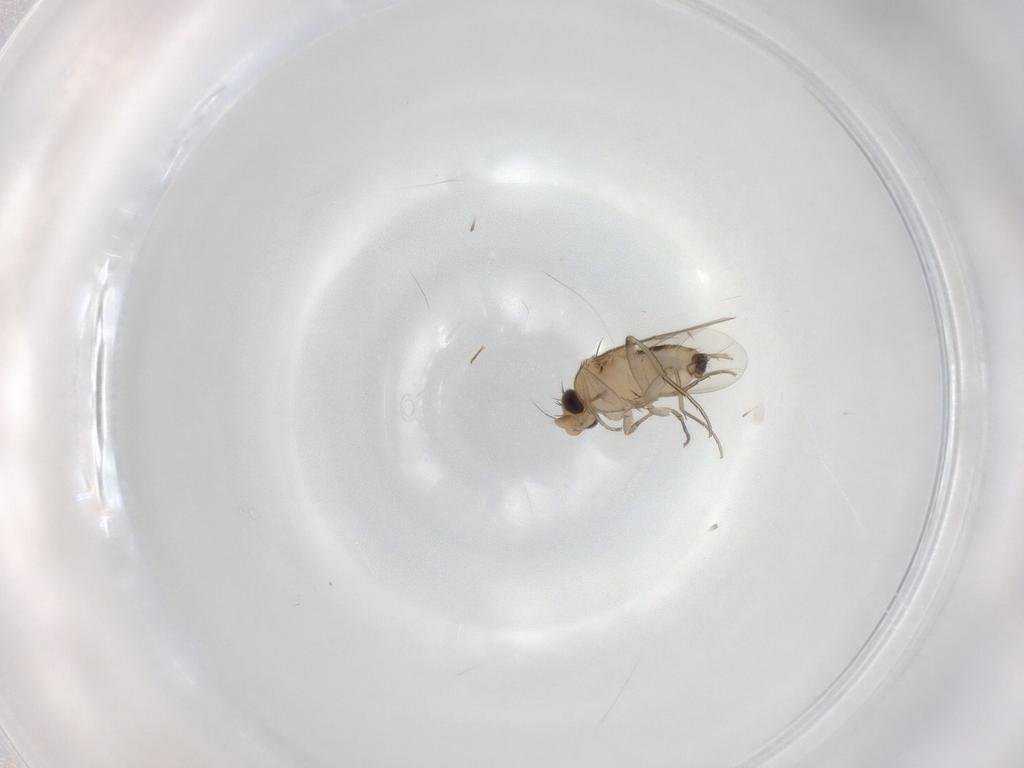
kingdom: Animalia
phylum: Arthropoda
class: Insecta
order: Diptera
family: Phoridae
